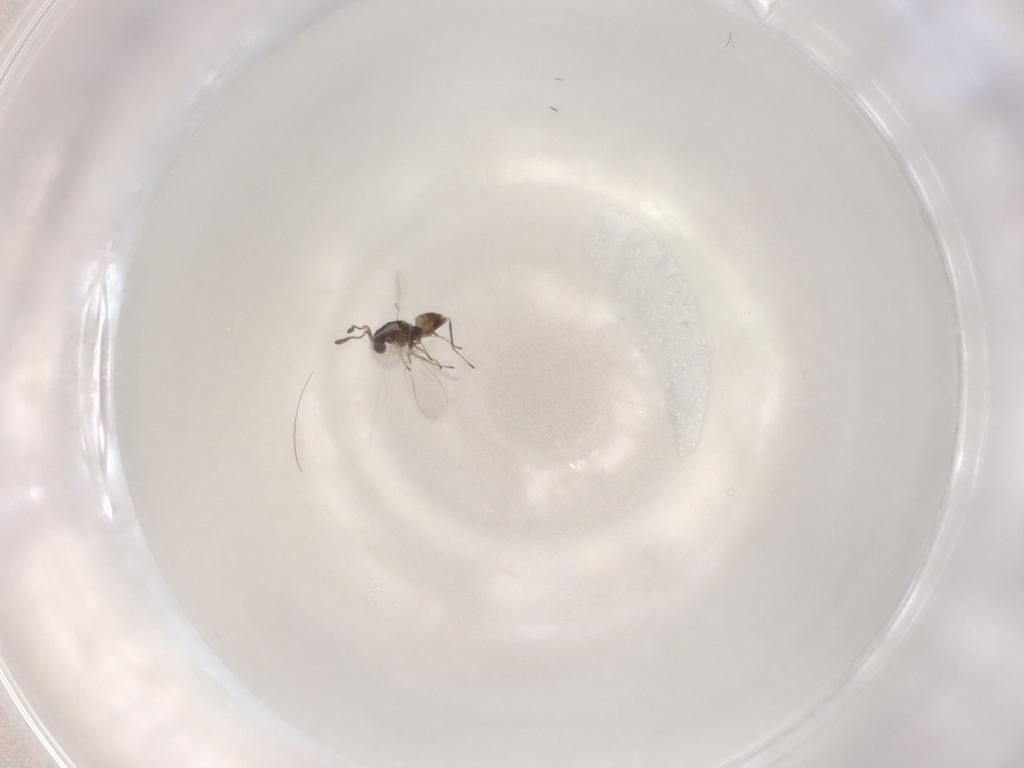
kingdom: Animalia
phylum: Arthropoda
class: Insecta
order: Hymenoptera
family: Mymaridae
